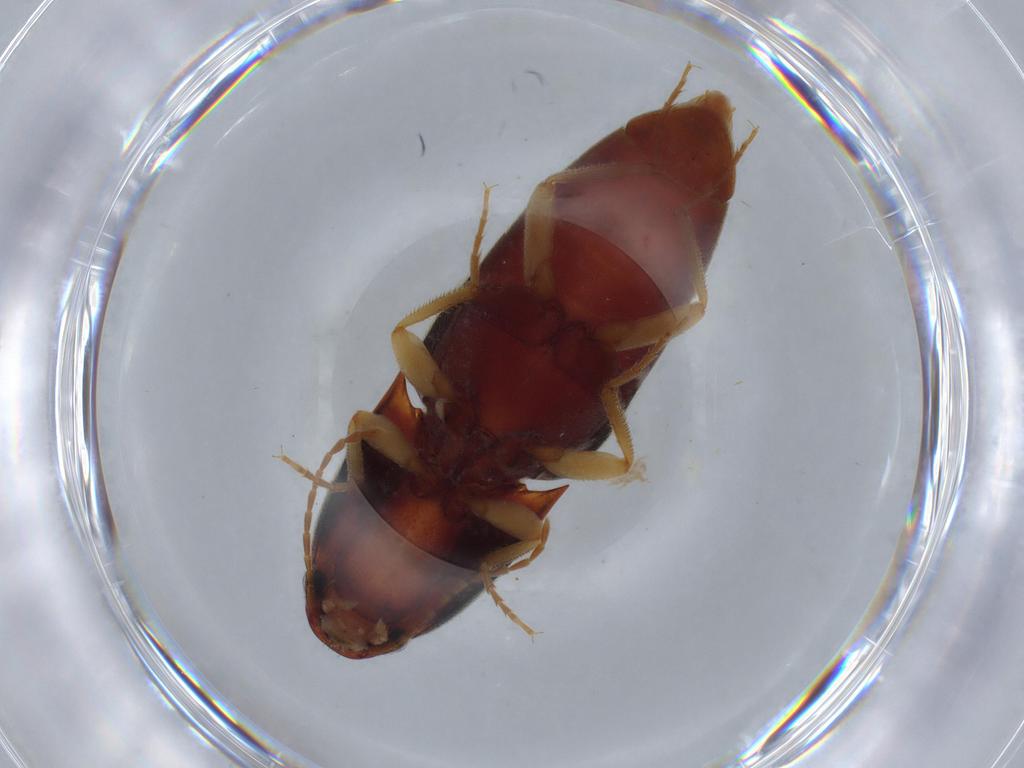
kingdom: Animalia
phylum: Arthropoda
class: Insecta
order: Coleoptera
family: Elateridae
